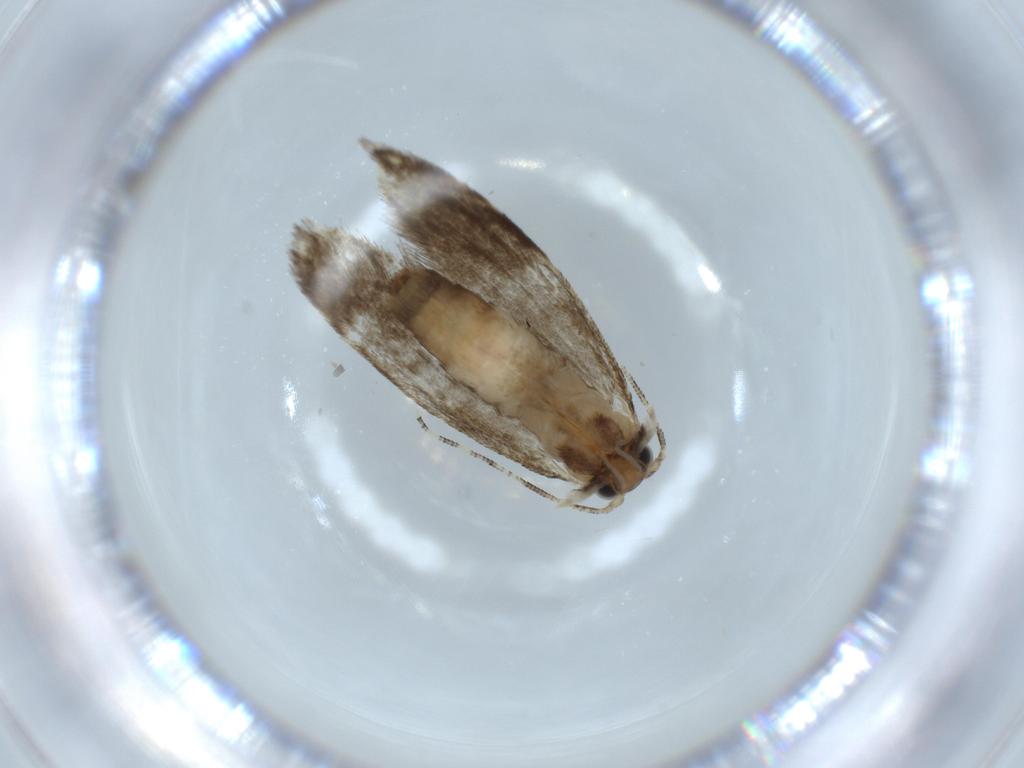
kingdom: Animalia
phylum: Arthropoda
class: Insecta
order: Lepidoptera
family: Tineidae
